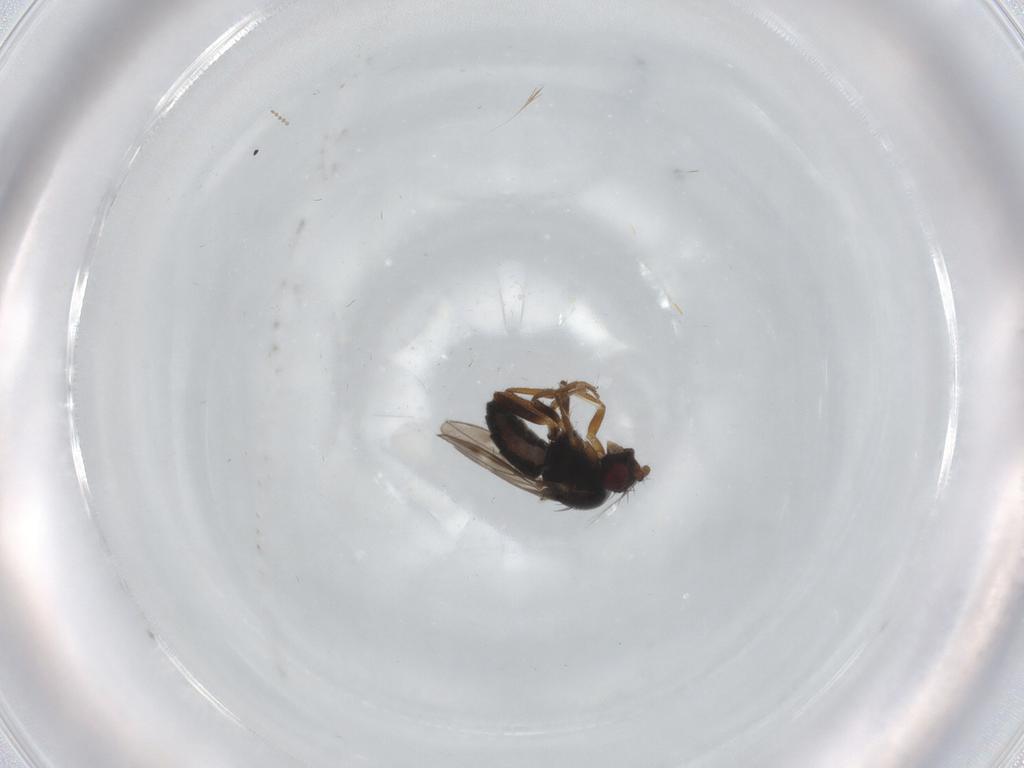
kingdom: Animalia
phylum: Arthropoda
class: Insecta
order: Diptera
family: Sphaeroceridae
